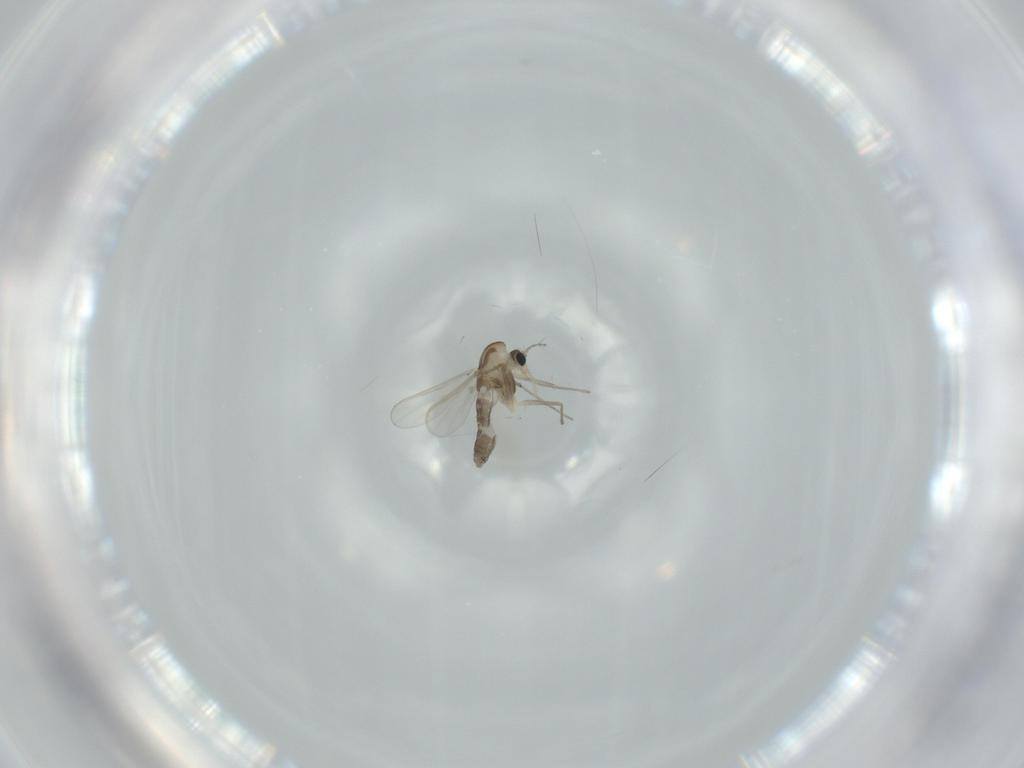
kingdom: Animalia
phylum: Arthropoda
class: Insecta
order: Diptera
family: Chironomidae
